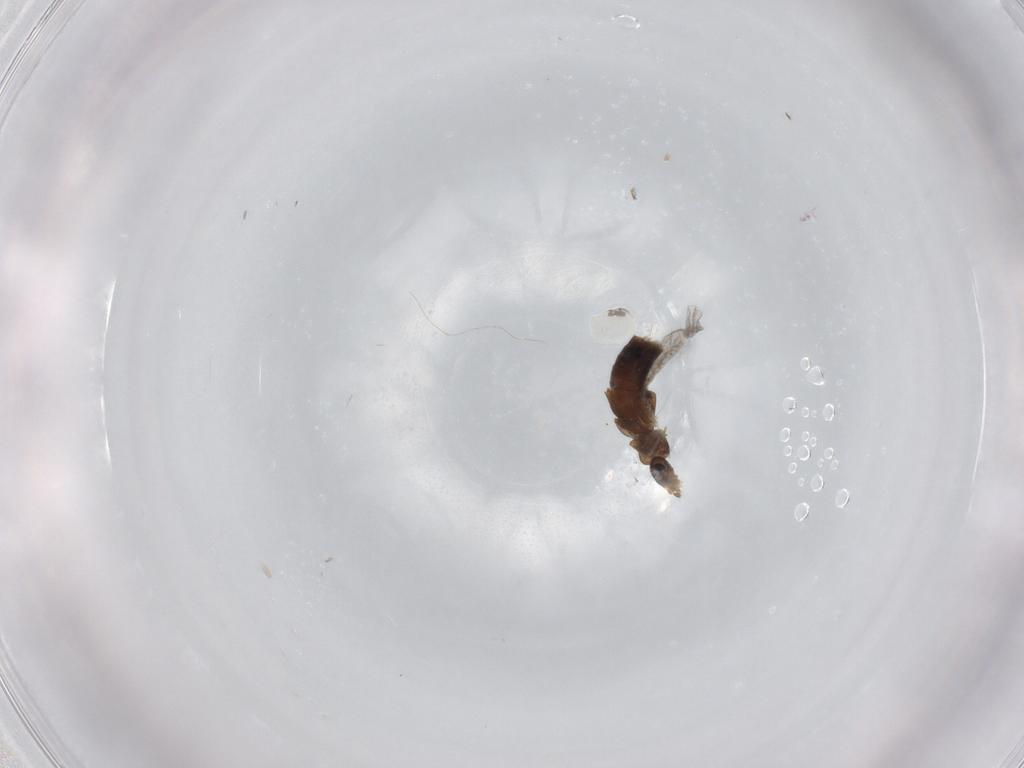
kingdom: Animalia
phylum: Arthropoda
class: Insecta
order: Coleoptera
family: Staphylinidae
